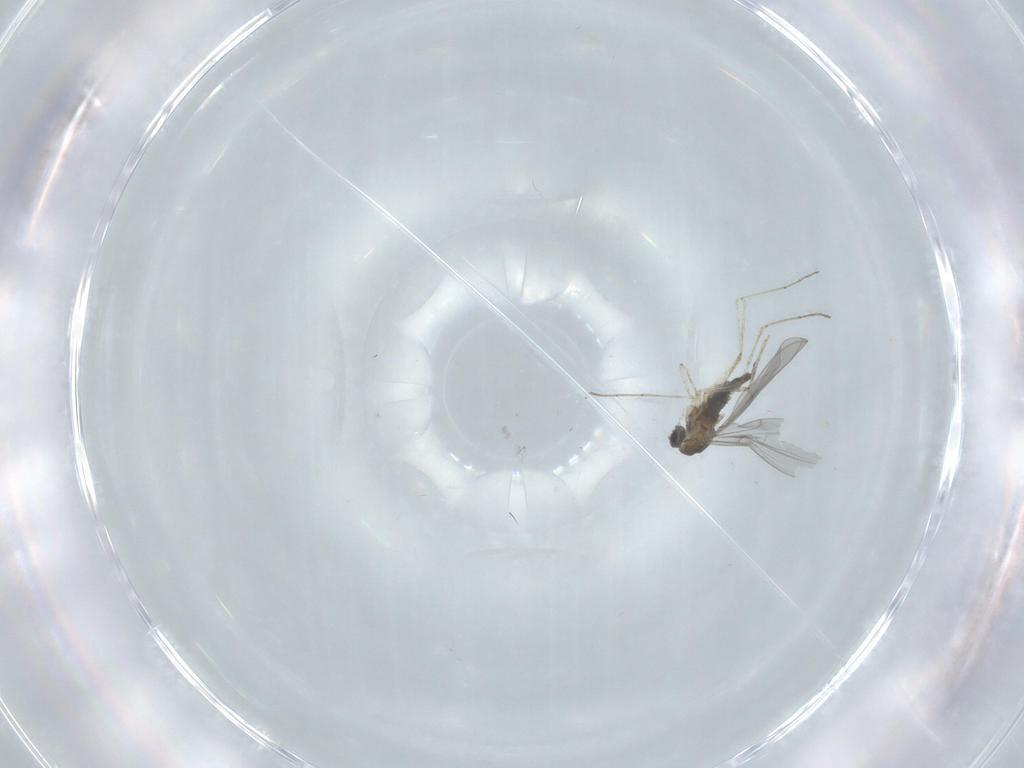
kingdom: Animalia
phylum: Arthropoda
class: Insecta
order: Diptera
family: Cecidomyiidae
